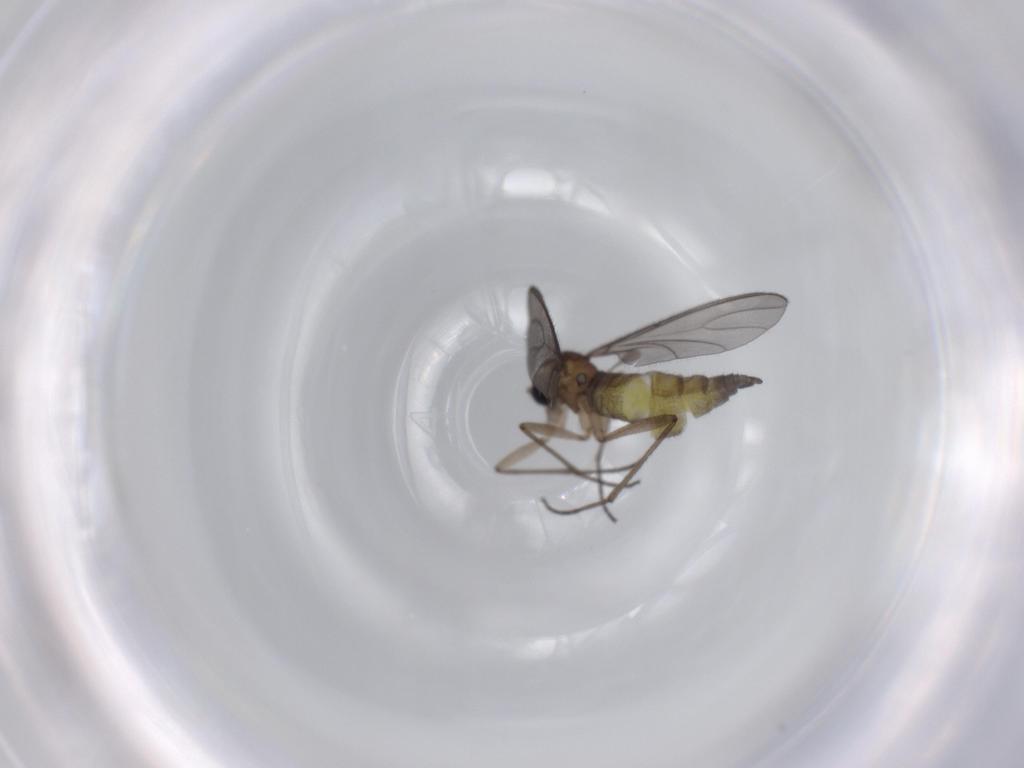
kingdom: Animalia
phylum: Arthropoda
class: Insecta
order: Diptera
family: Sciaridae
